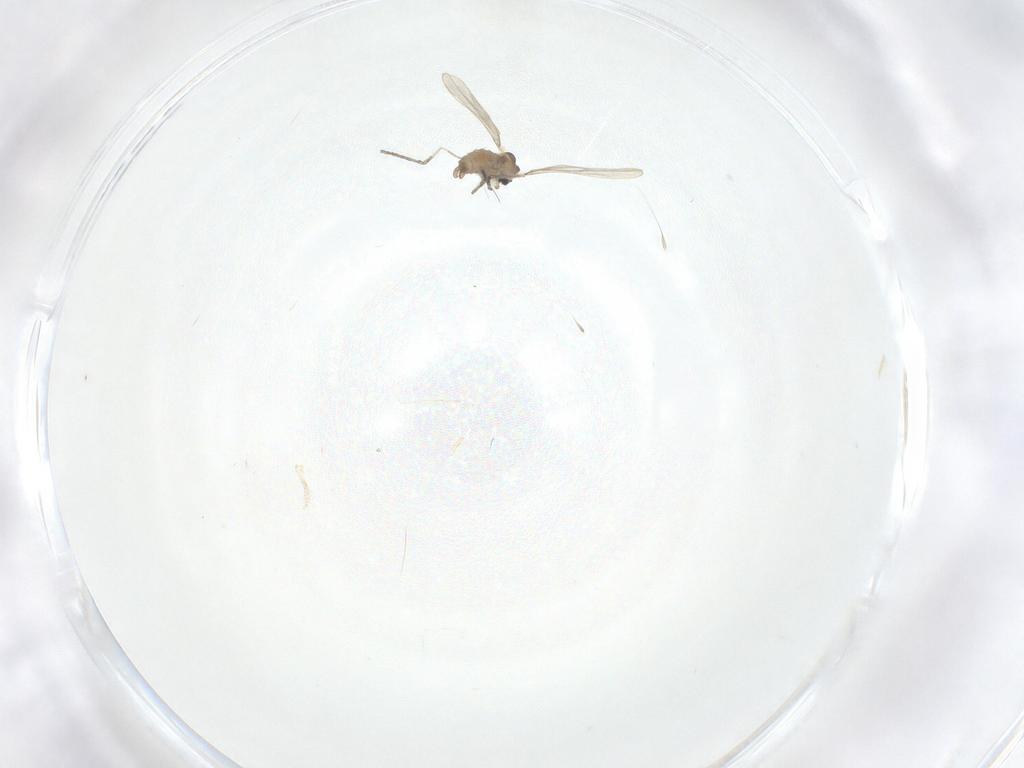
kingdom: Animalia
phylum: Arthropoda
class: Insecta
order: Diptera
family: Cecidomyiidae
